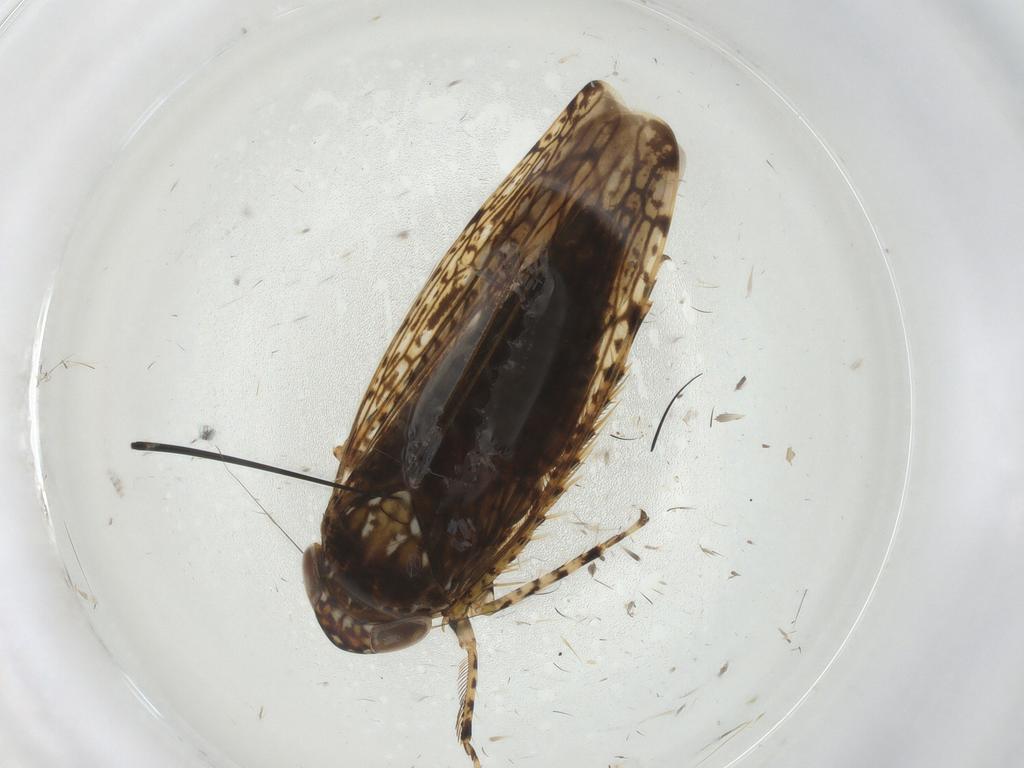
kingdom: Animalia
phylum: Arthropoda
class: Insecta
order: Hemiptera
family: Cicadellidae
